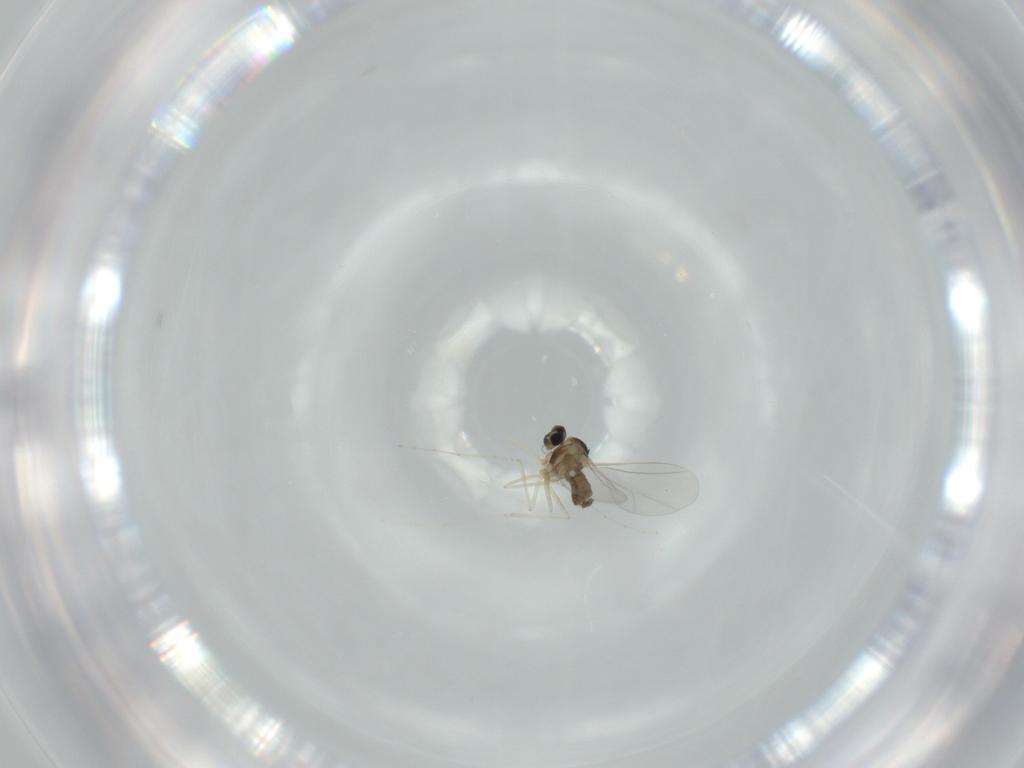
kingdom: Animalia
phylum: Arthropoda
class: Insecta
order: Diptera
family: Cecidomyiidae
